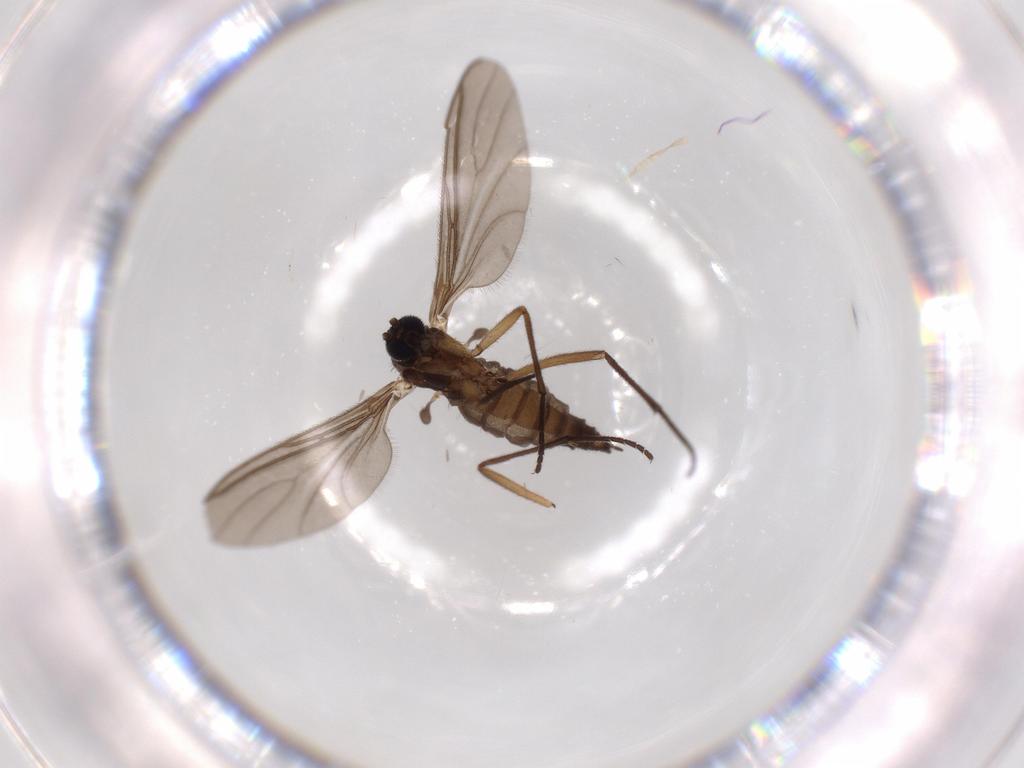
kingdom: Animalia
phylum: Arthropoda
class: Insecta
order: Diptera
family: Sciaridae
